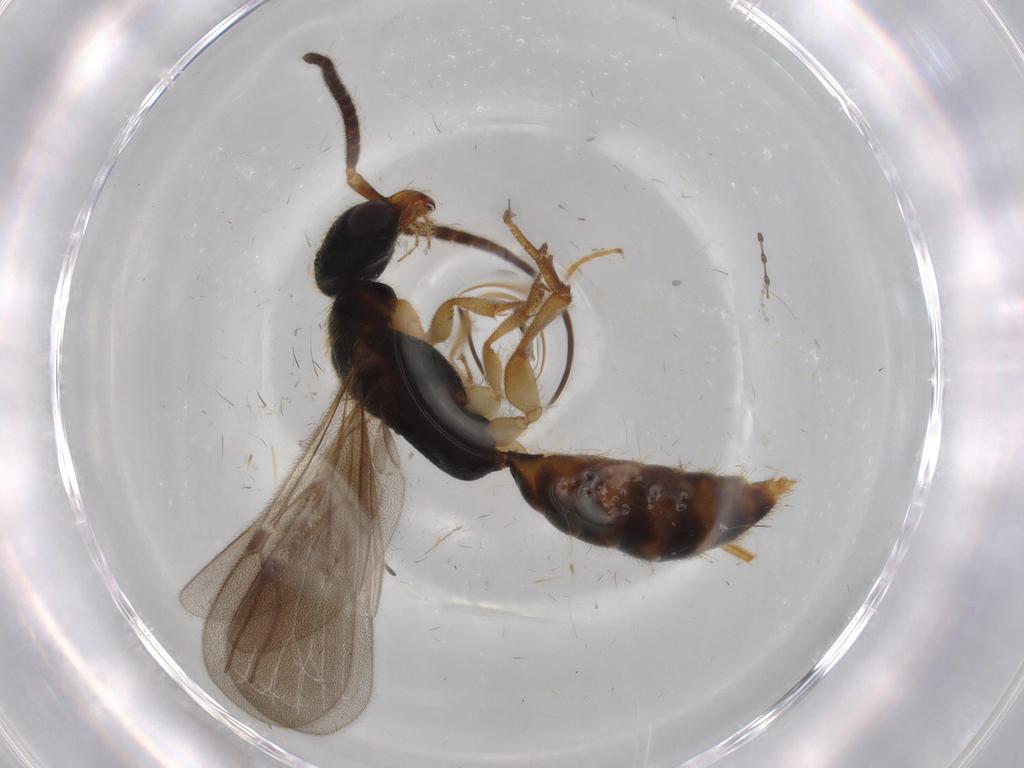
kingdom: Animalia
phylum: Arthropoda
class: Insecta
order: Hymenoptera
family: Bethylidae
